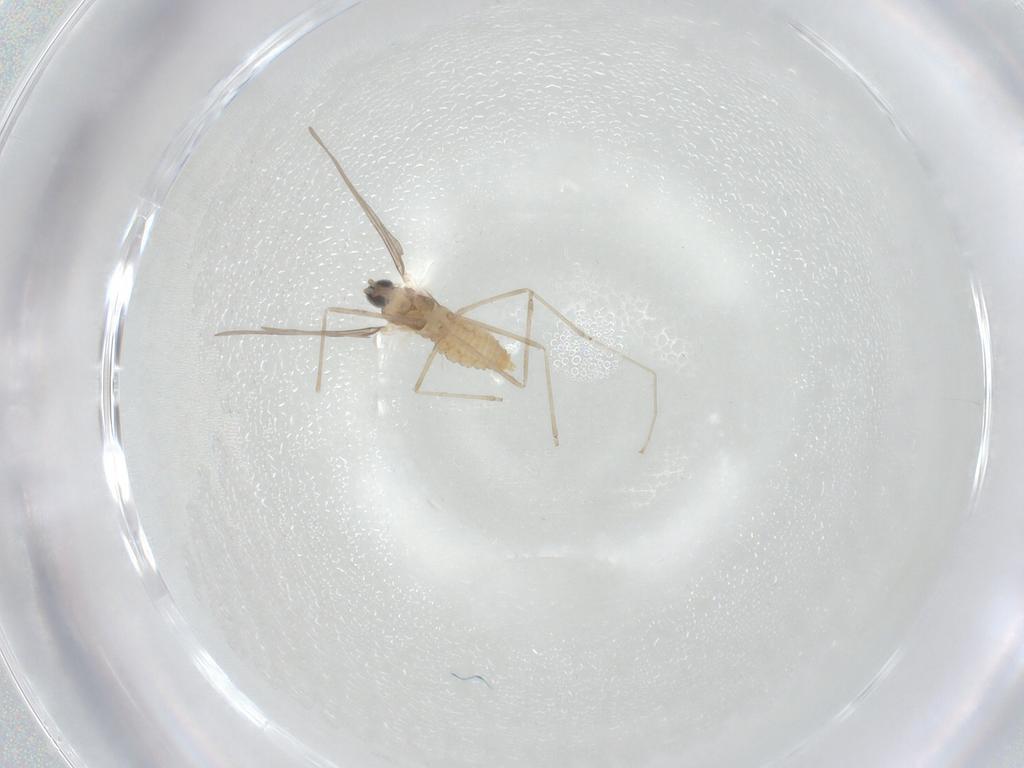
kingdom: Animalia
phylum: Arthropoda
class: Insecta
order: Diptera
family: Cecidomyiidae
